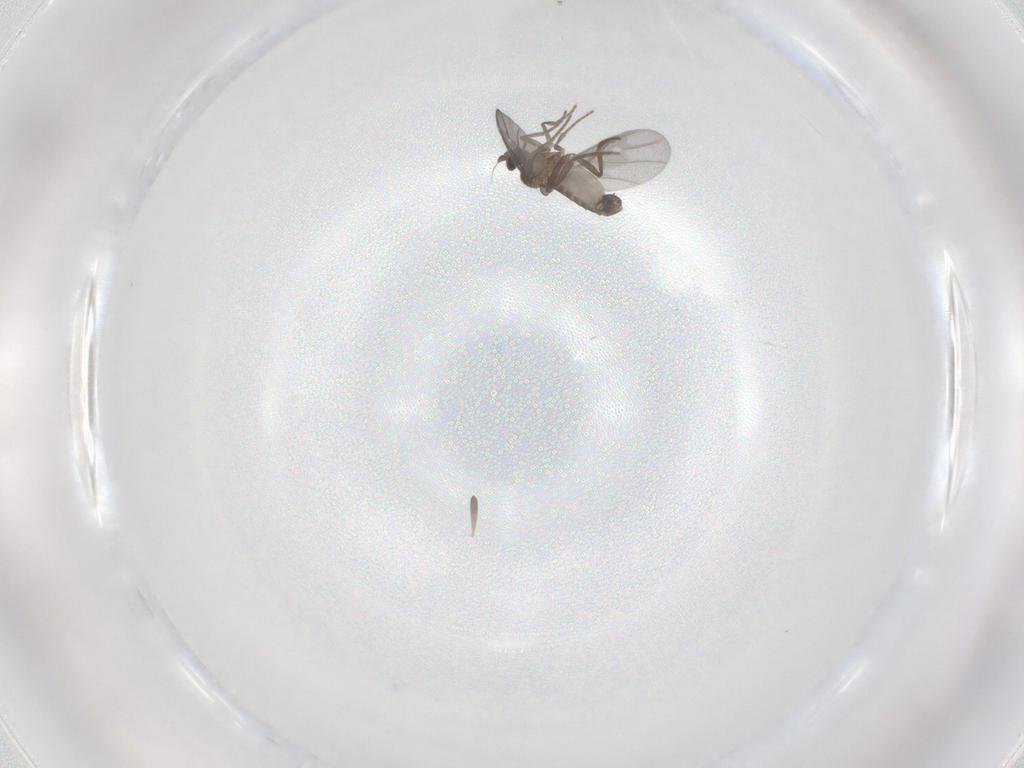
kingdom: Animalia
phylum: Arthropoda
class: Insecta
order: Diptera
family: Phoridae
